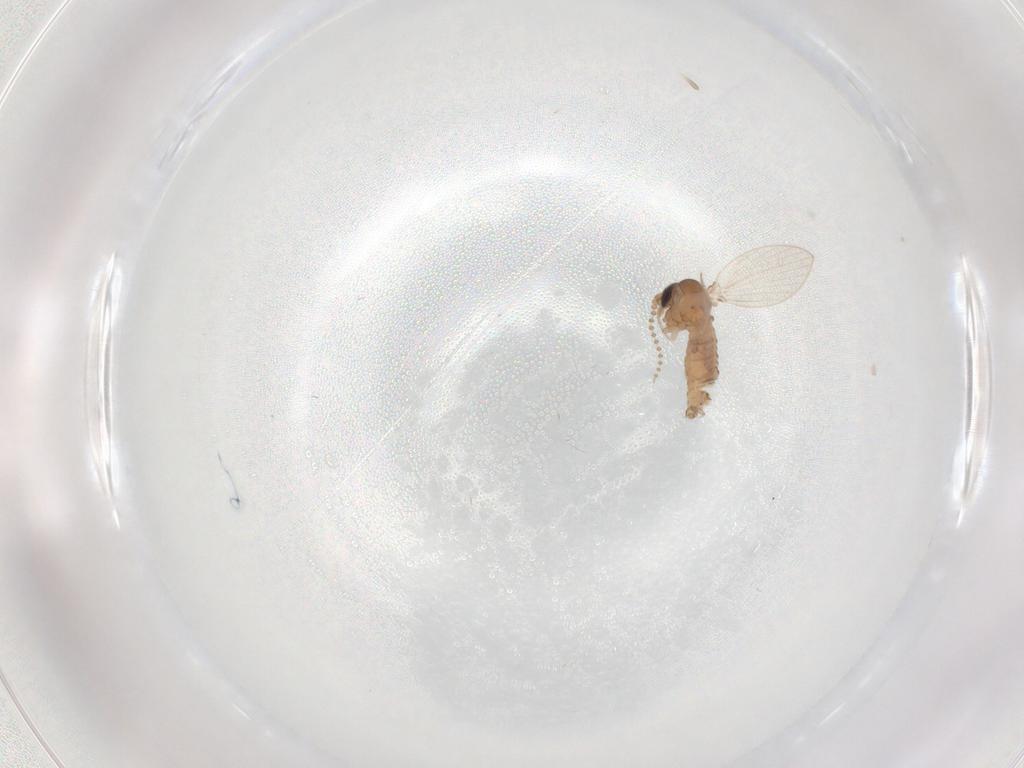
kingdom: Animalia
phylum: Arthropoda
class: Insecta
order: Diptera
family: Psychodidae
